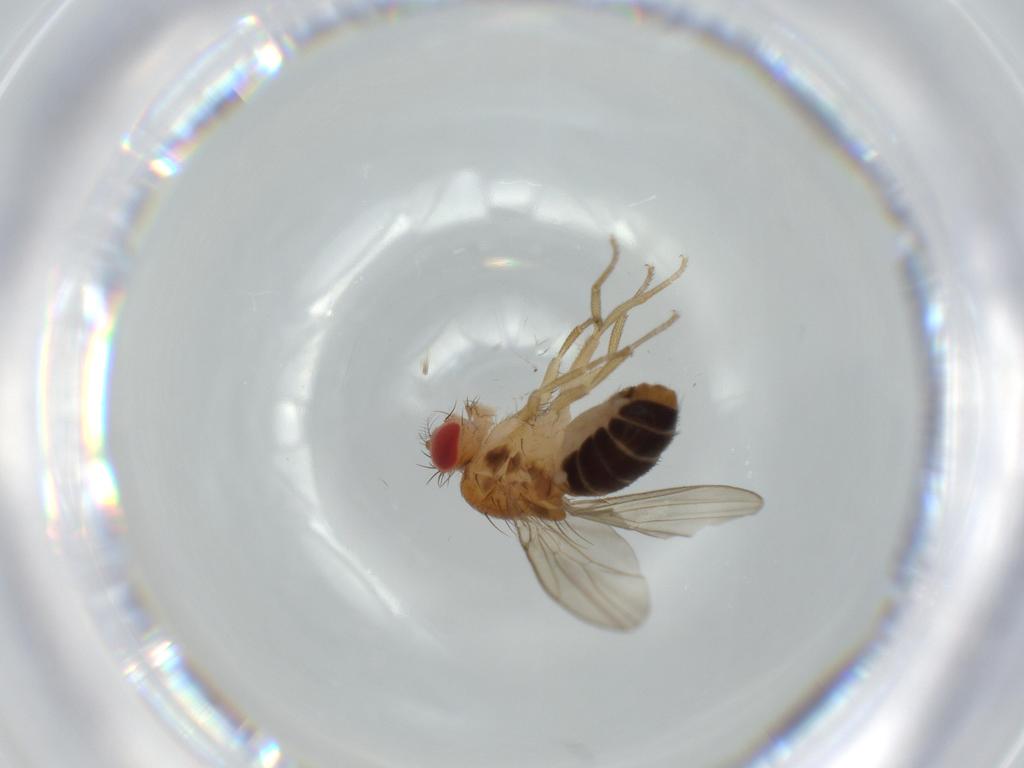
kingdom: Animalia
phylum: Arthropoda
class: Insecta
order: Diptera
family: Drosophilidae
